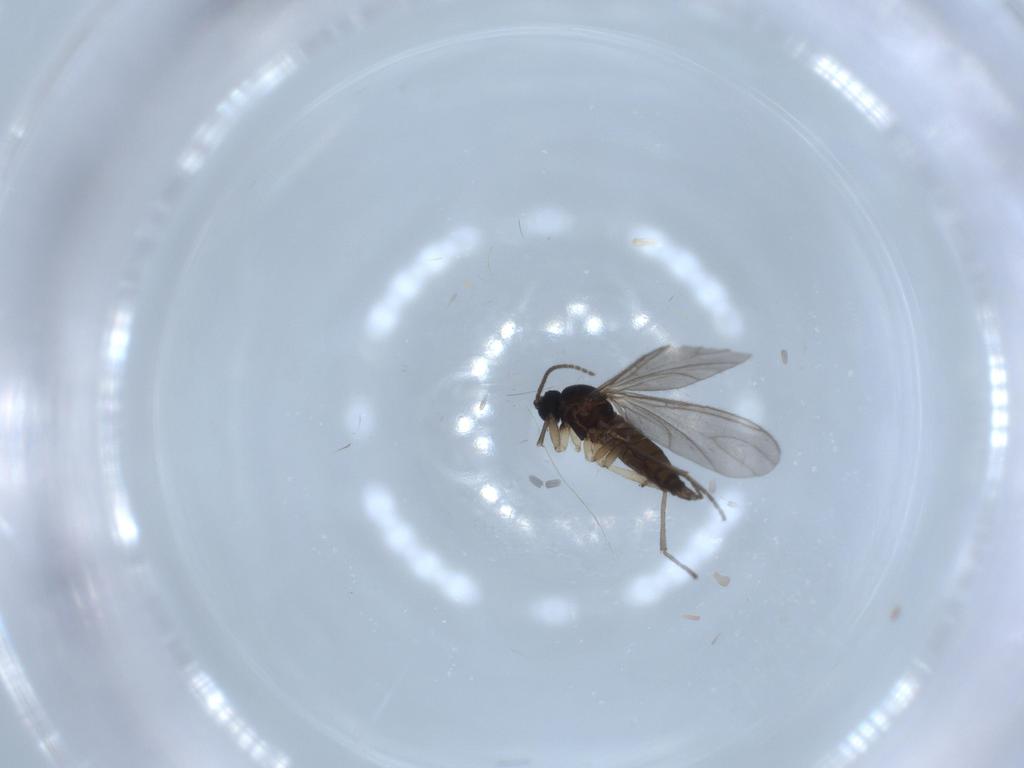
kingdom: Animalia
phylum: Arthropoda
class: Insecta
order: Diptera
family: Sciaridae
